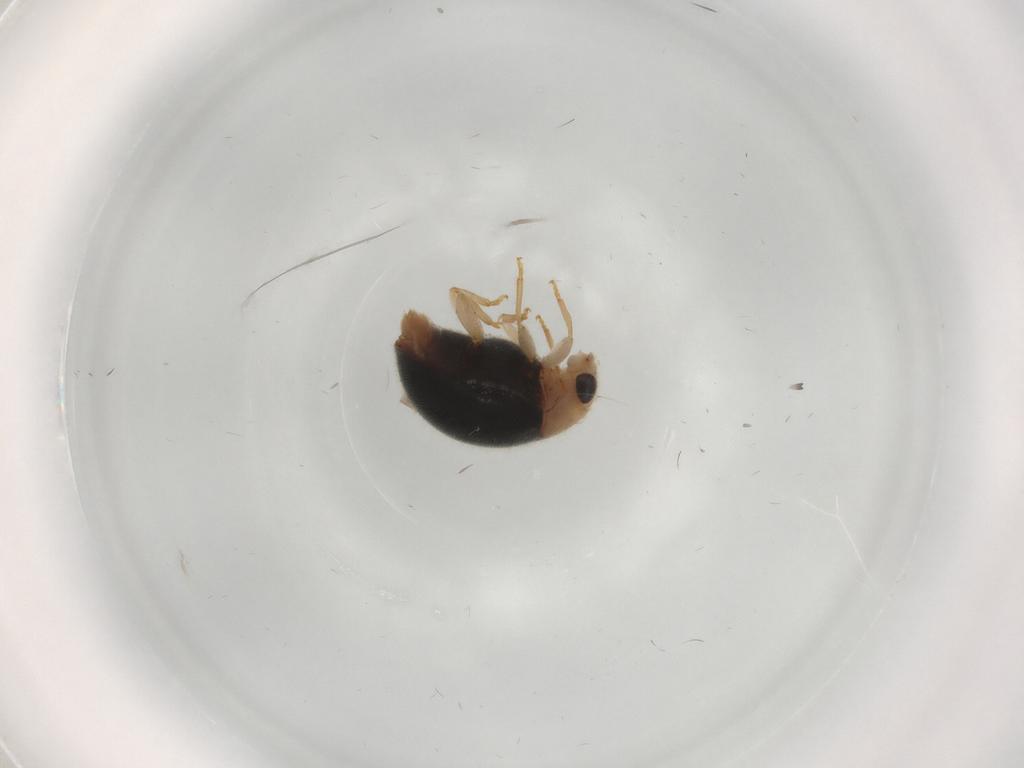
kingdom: Animalia
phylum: Arthropoda
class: Insecta
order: Coleoptera
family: Coccinellidae
